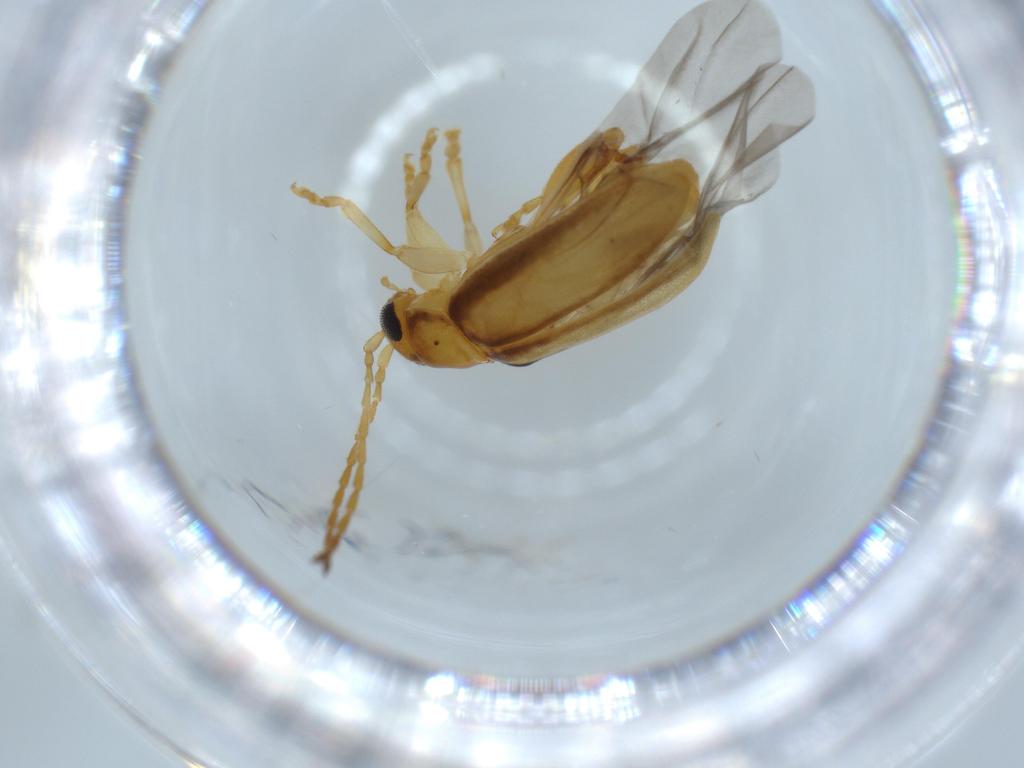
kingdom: Animalia
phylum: Arthropoda
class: Insecta
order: Coleoptera
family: Chrysomelidae
